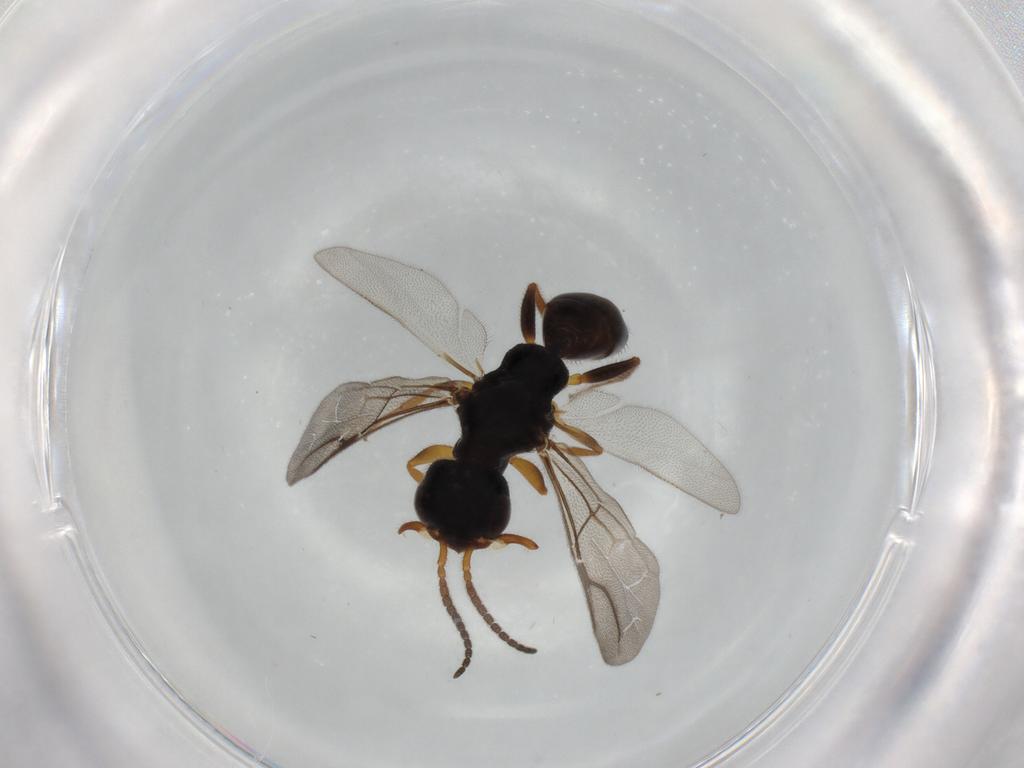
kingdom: Animalia
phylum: Arthropoda
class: Insecta
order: Hymenoptera
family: Bethylidae
